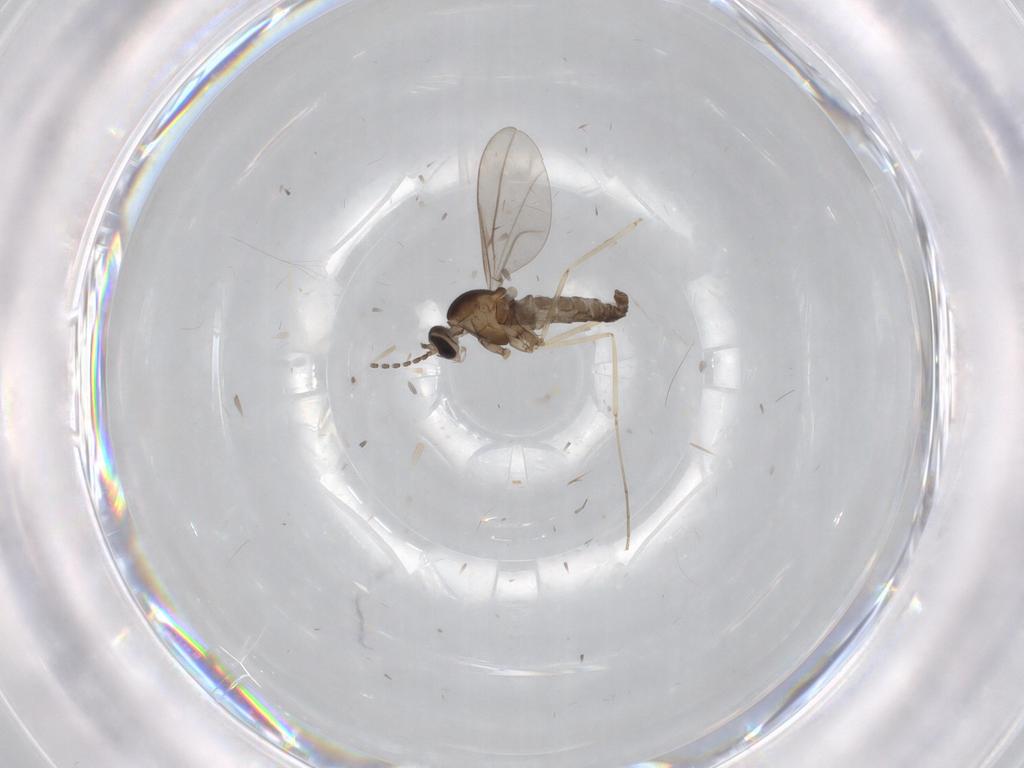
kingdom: Animalia
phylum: Arthropoda
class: Insecta
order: Diptera
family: Psychodidae
